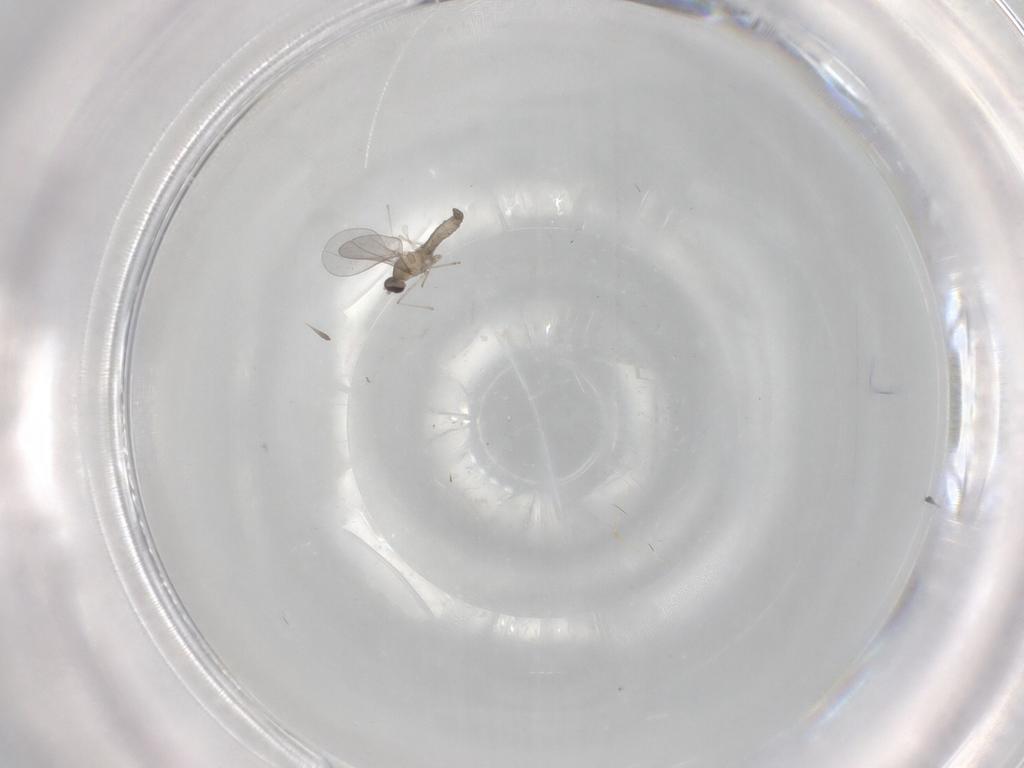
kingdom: Animalia
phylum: Arthropoda
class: Insecta
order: Diptera
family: Cecidomyiidae
